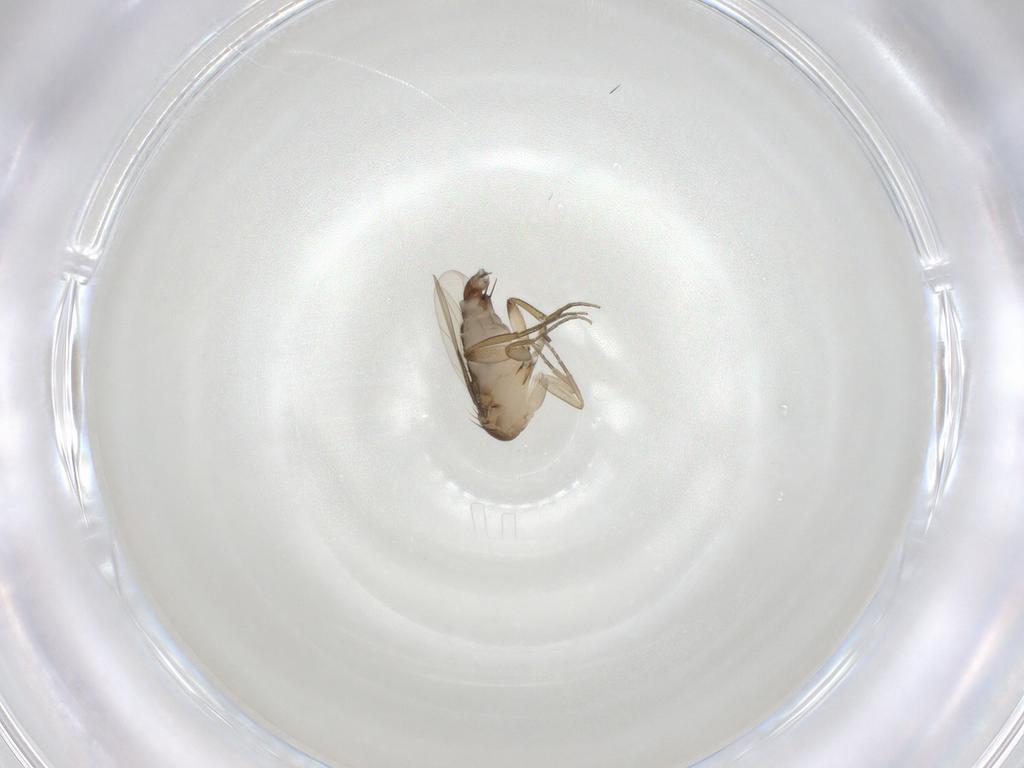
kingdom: Animalia
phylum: Arthropoda
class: Insecta
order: Diptera
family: Phoridae
